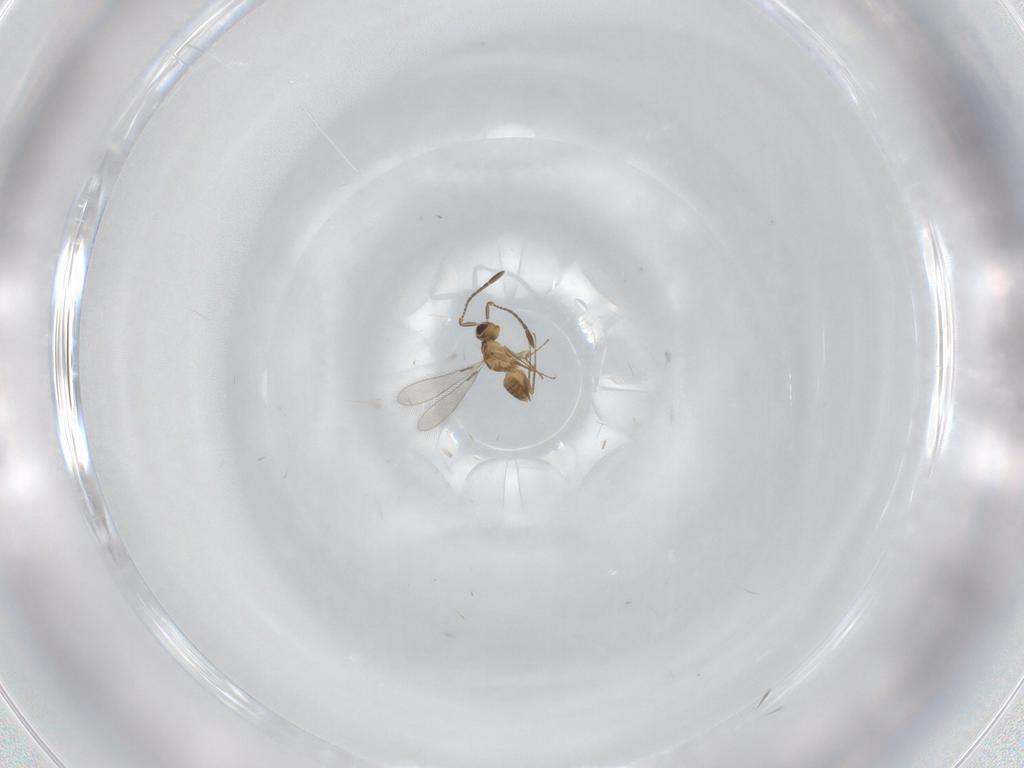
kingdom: Animalia
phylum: Arthropoda
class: Insecta
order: Hymenoptera
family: Mymaridae
